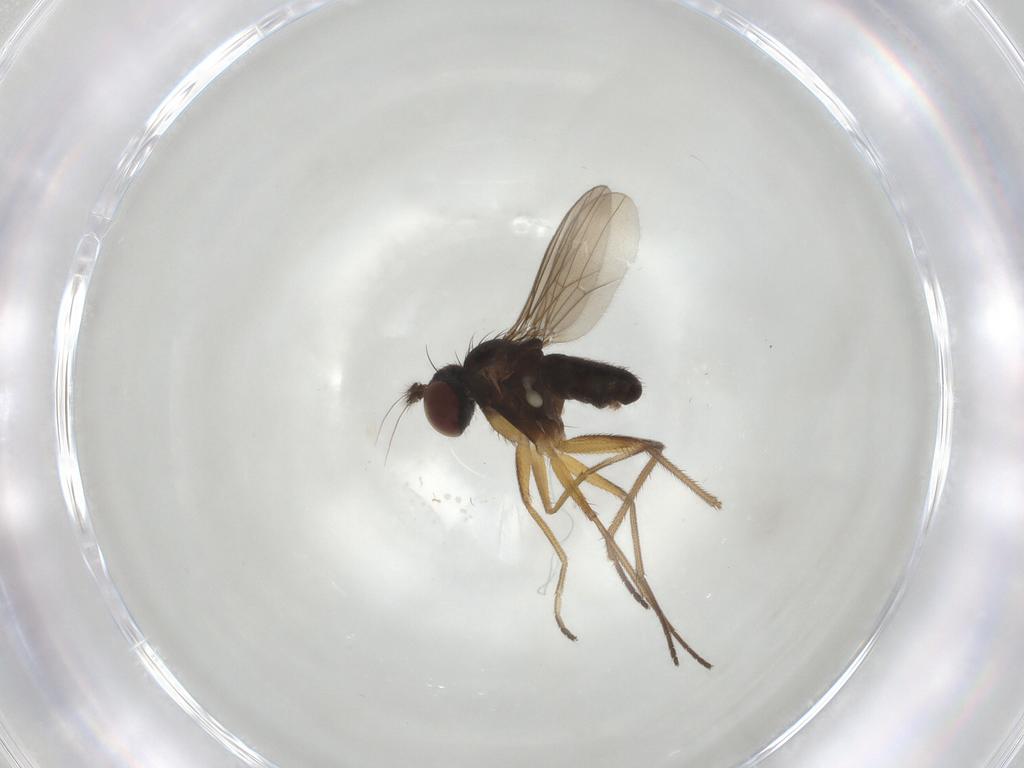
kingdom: Animalia
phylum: Arthropoda
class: Insecta
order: Diptera
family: Dolichopodidae
